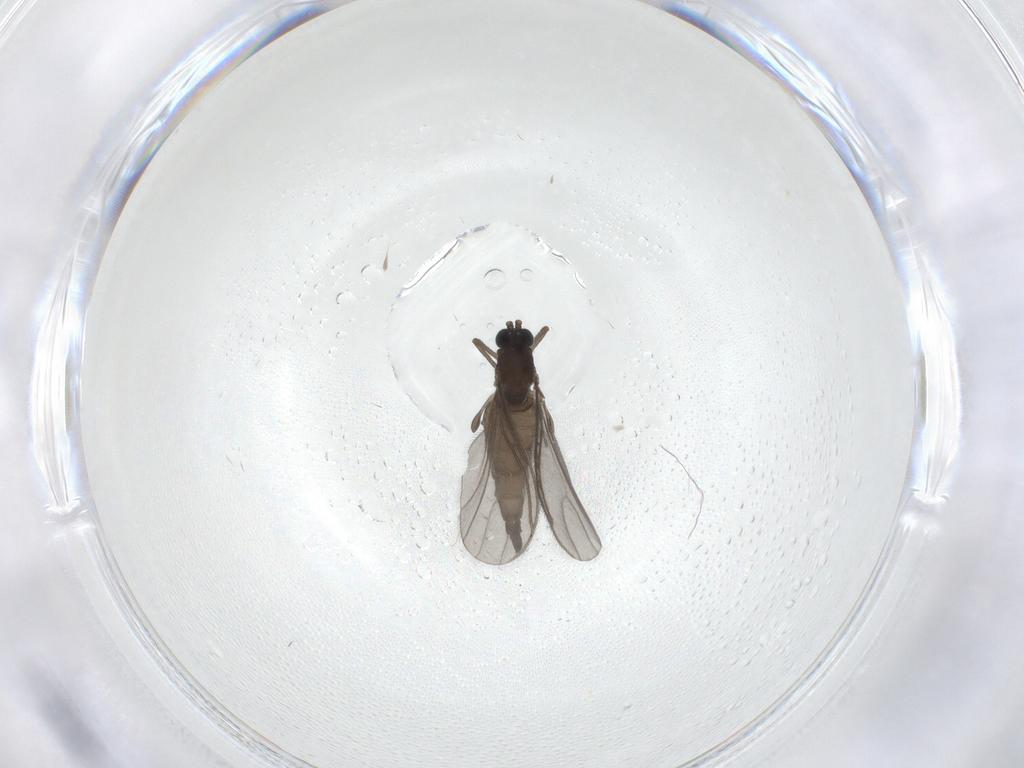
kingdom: Animalia
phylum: Arthropoda
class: Insecta
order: Diptera
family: Sciaridae
